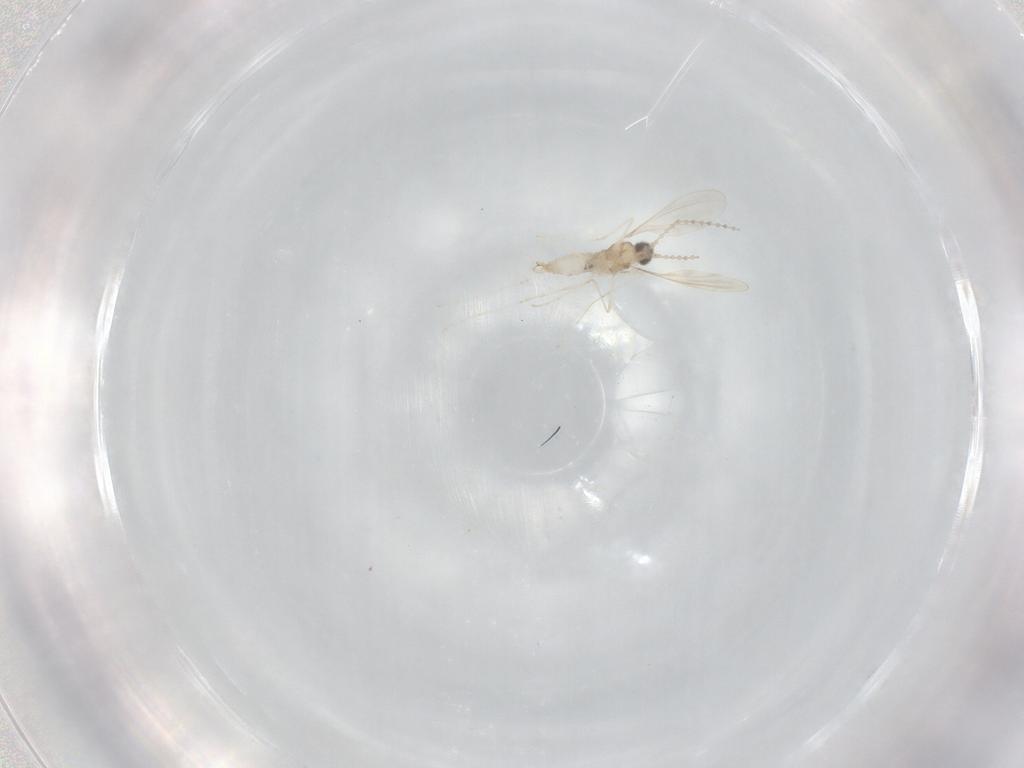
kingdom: Animalia
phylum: Arthropoda
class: Insecta
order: Diptera
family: Cecidomyiidae
